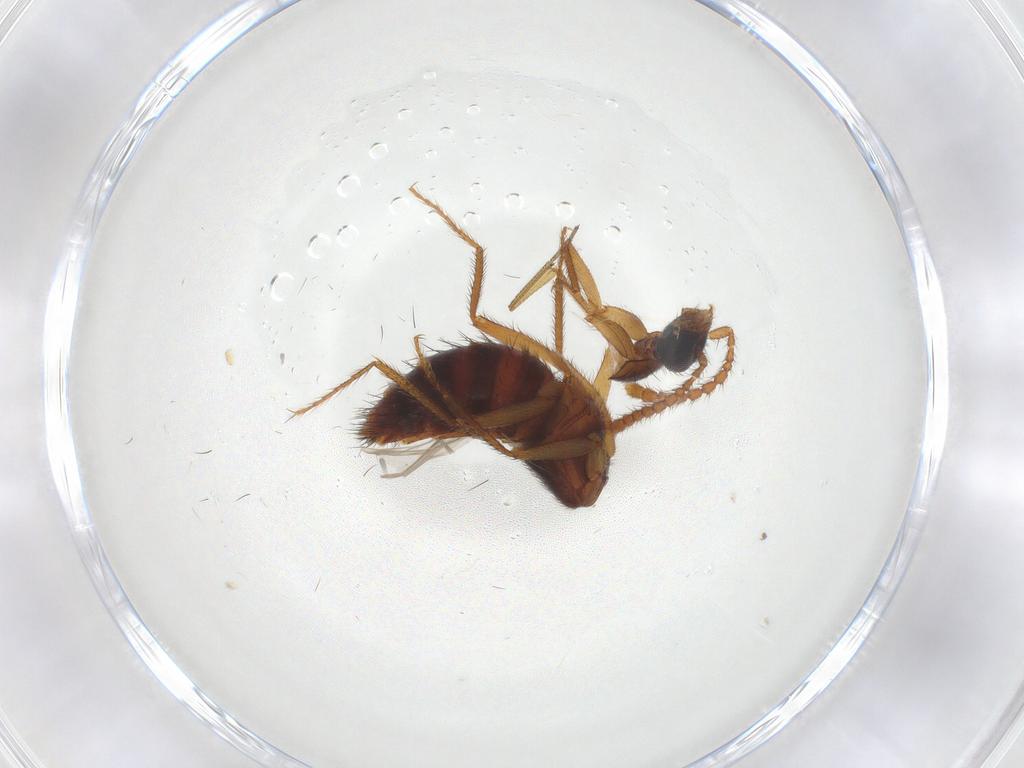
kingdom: Animalia
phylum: Arthropoda
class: Insecta
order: Coleoptera
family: Staphylinidae
